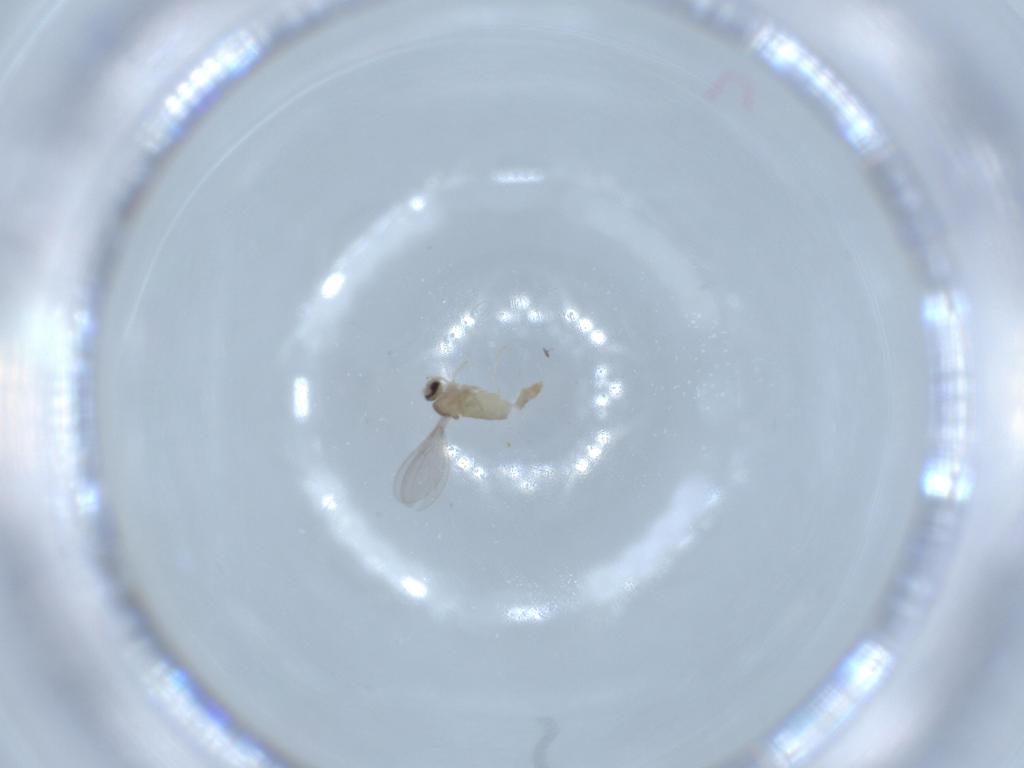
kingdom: Animalia
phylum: Arthropoda
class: Insecta
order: Diptera
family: Cecidomyiidae
